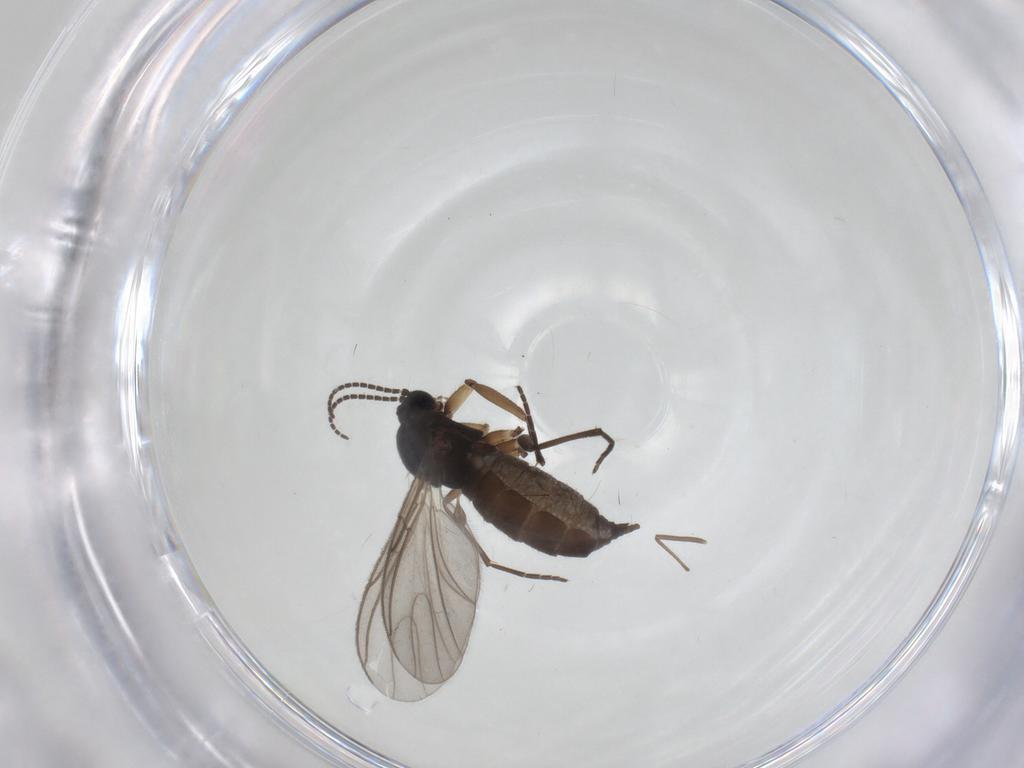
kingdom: Animalia
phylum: Arthropoda
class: Insecta
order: Diptera
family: Sciaridae
